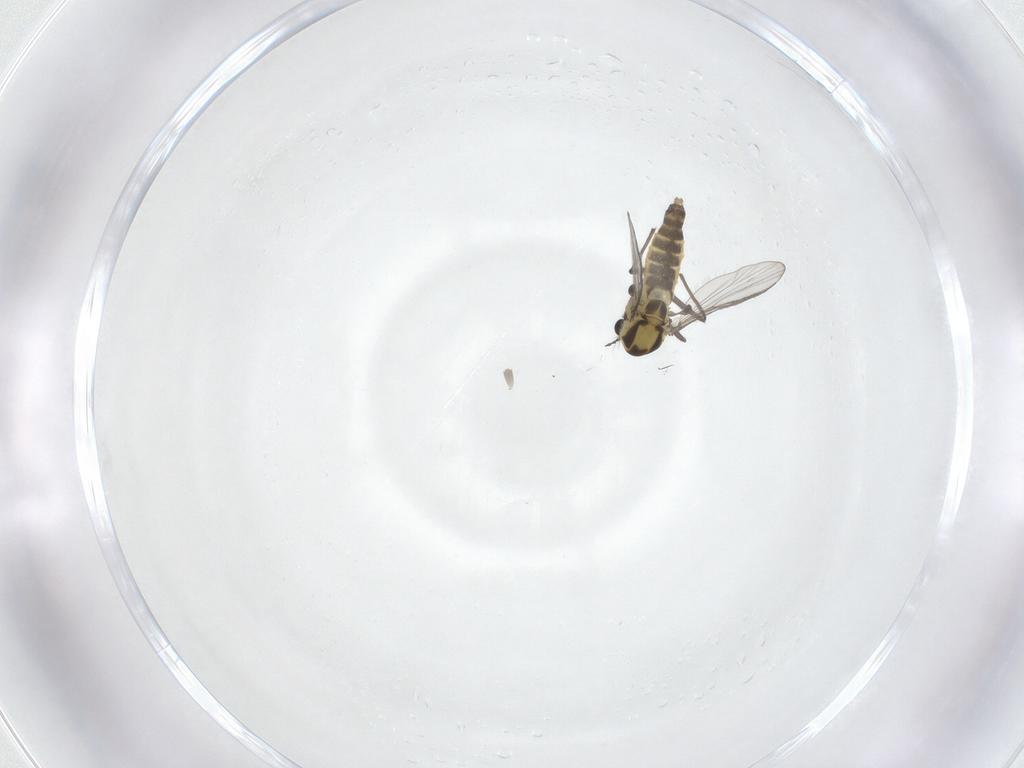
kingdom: Animalia
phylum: Arthropoda
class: Insecta
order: Diptera
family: Chironomidae
